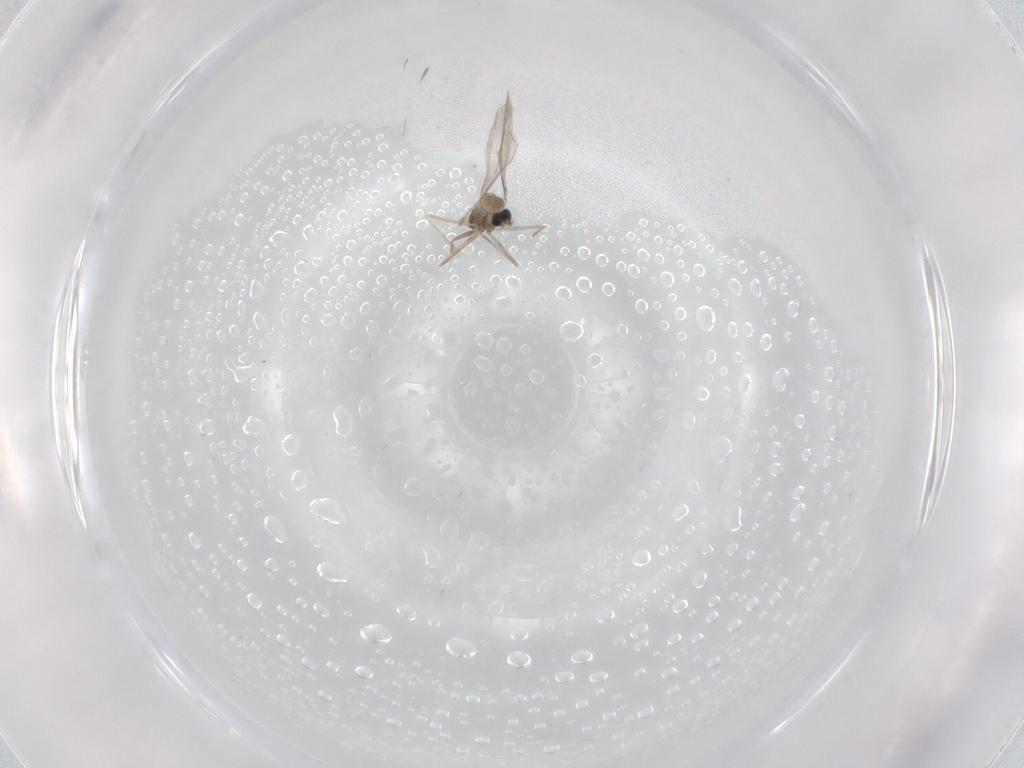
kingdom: Animalia
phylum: Arthropoda
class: Insecta
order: Diptera
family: Cecidomyiidae
